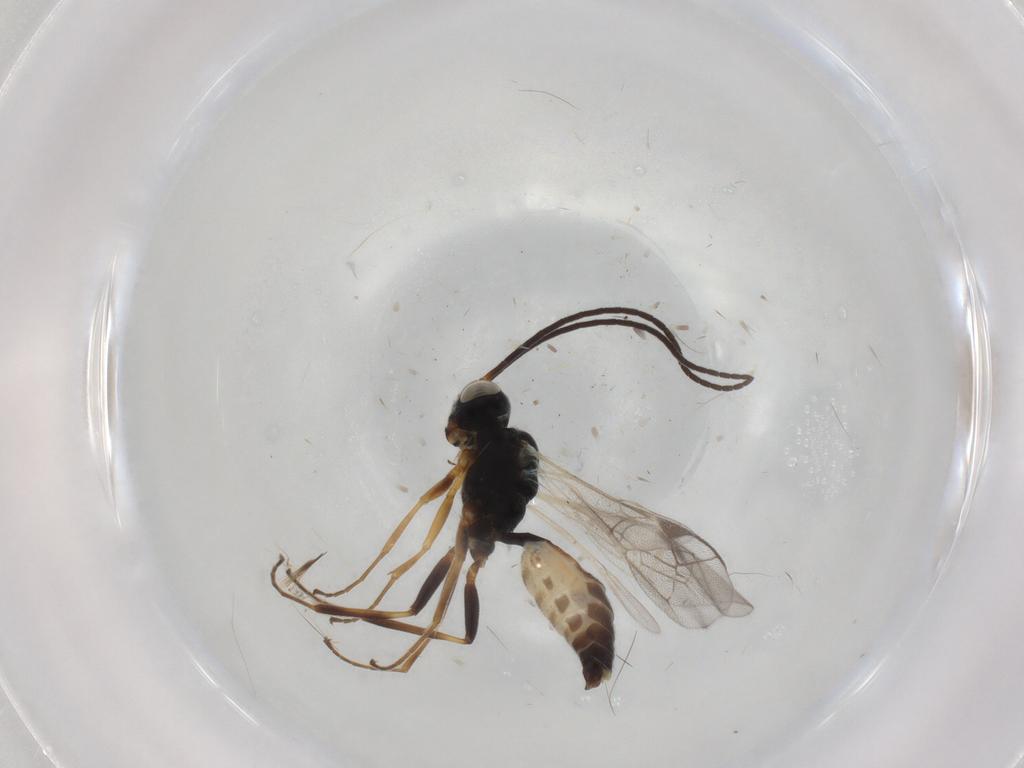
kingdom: Animalia
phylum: Arthropoda
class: Insecta
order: Hymenoptera
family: Ichneumonidae
